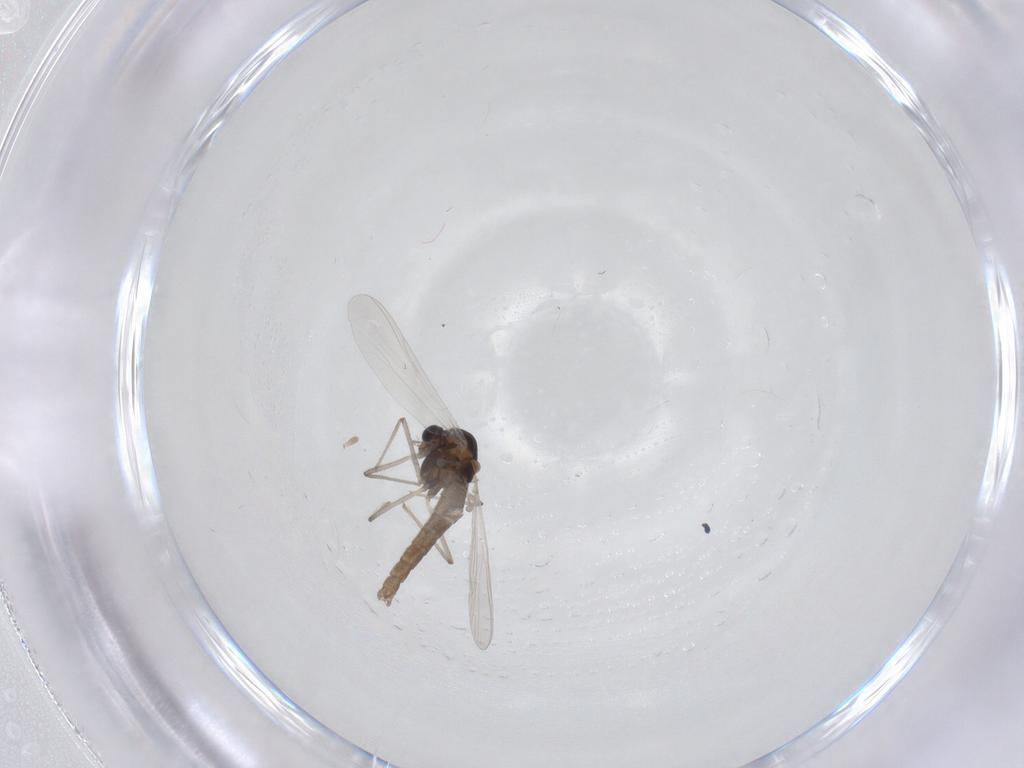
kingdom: Animalia
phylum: Arthropoda
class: Insecta
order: Diptera
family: Chironomidae
